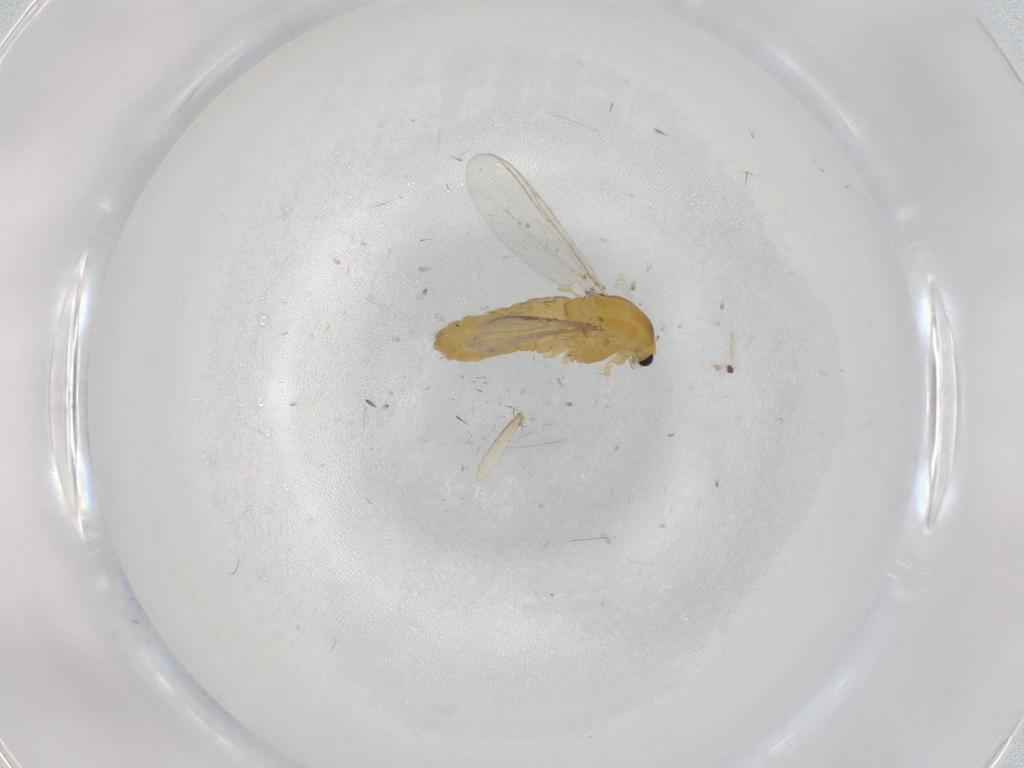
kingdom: Animalia
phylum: Arthropoda
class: Insecta
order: Diptera
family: Chironomidae
